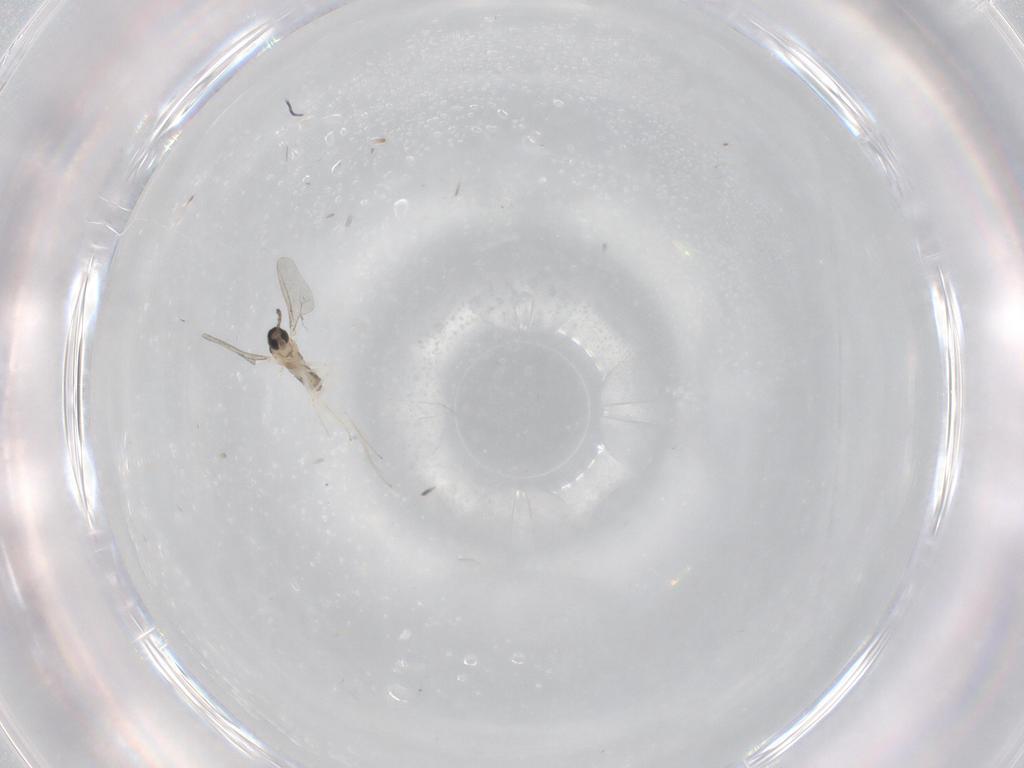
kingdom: Animalia
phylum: Arthropoda
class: Insecta
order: Diptera
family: Cecidomyiidae
